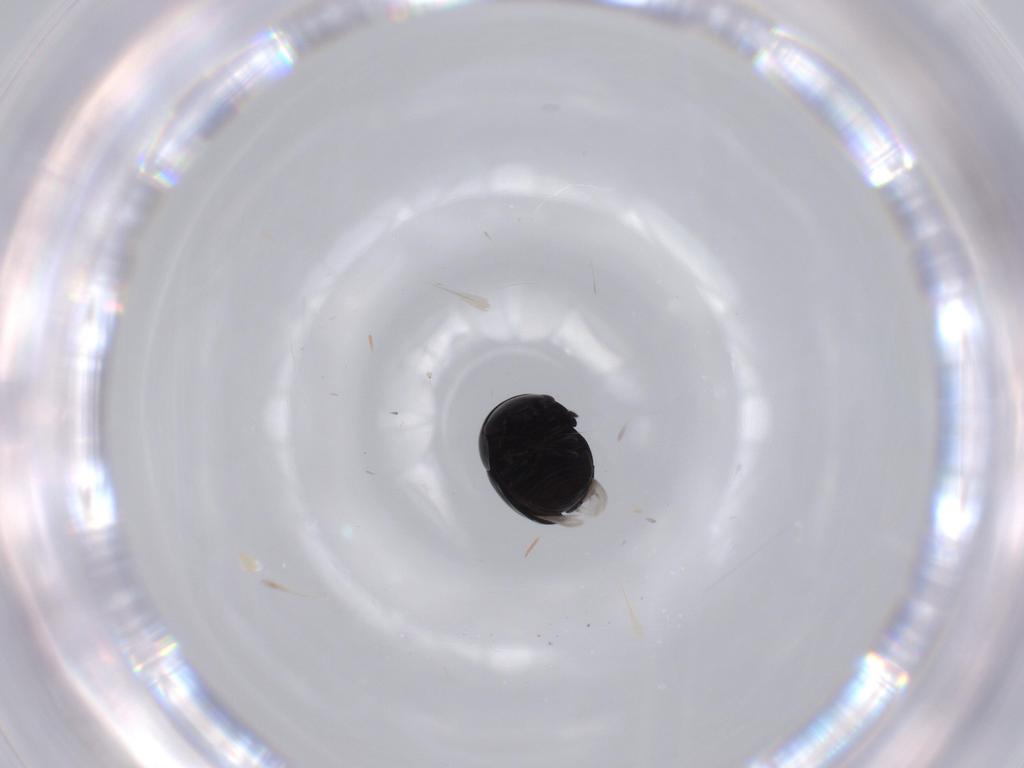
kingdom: Animalia
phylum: Arthropoda
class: Insecta
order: Coleoptera
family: Cybocephalidae
